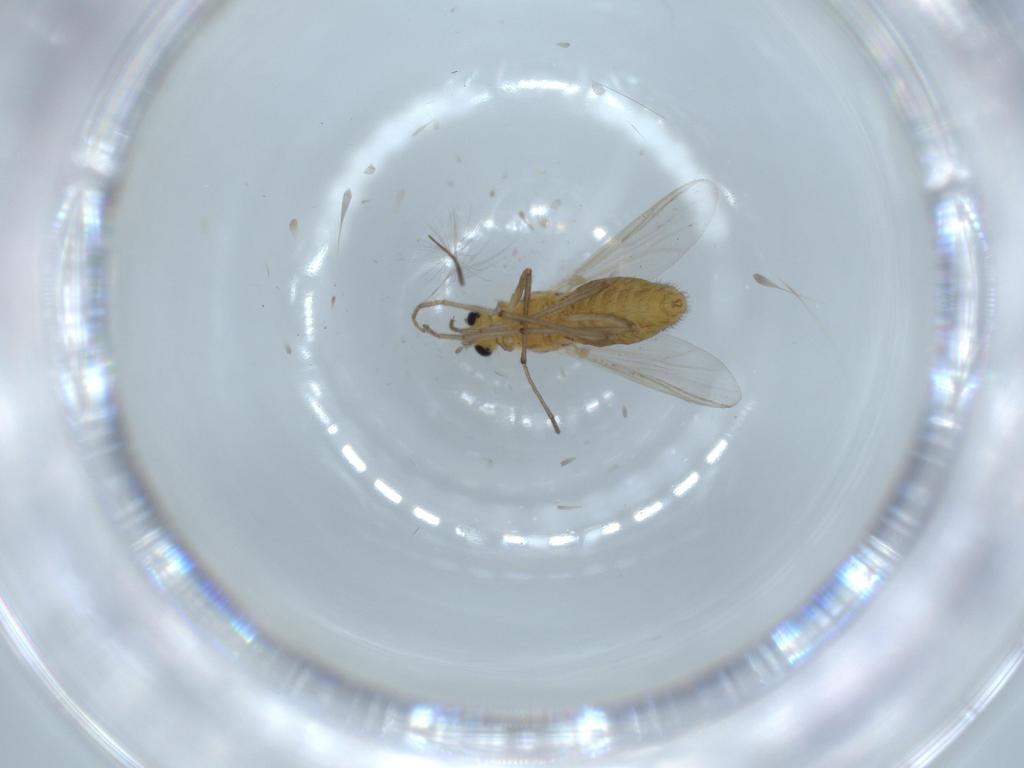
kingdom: Animalia
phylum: Arthropoda
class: Insecta
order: Diptera
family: Chironomidae
